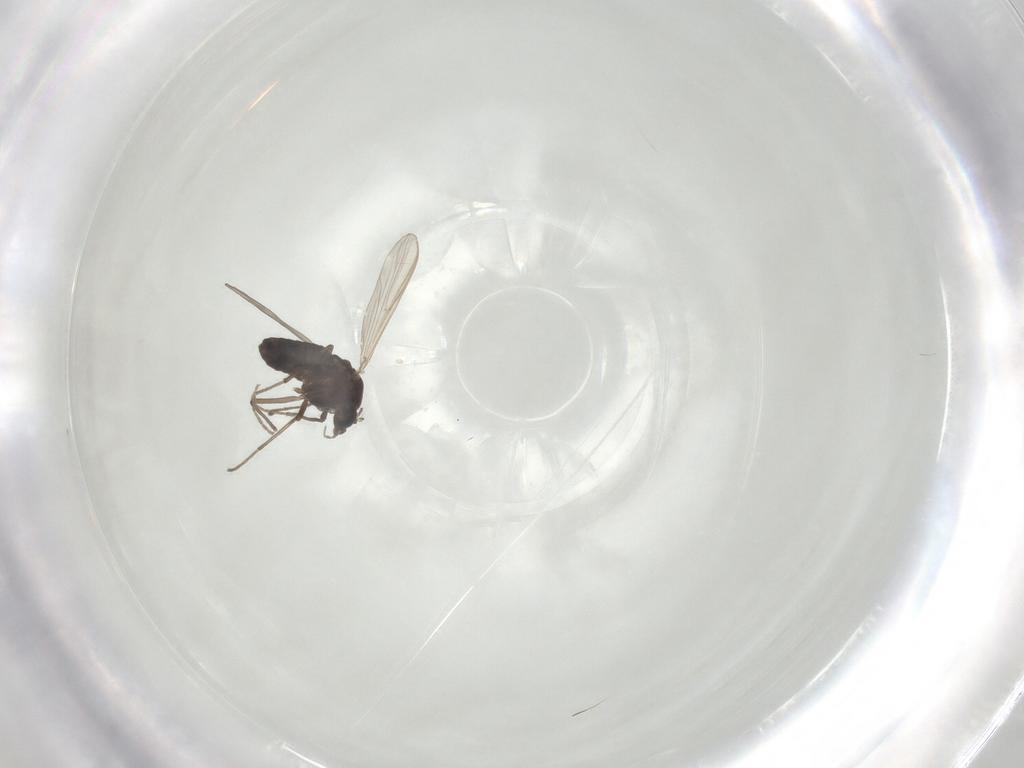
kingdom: Animalia
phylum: Arthropoda
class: Insecta
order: Diptera
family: Chironomidae
